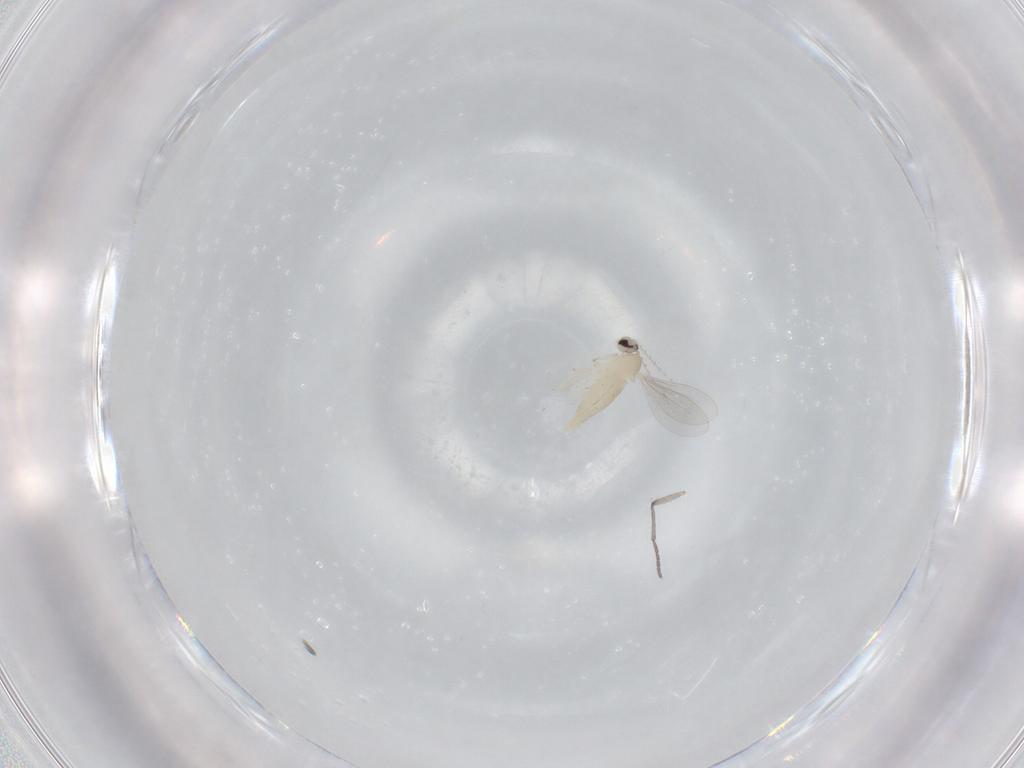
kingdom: Animalia
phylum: Arthropoda
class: Insecta
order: Diptera
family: Cecidomyiidae
